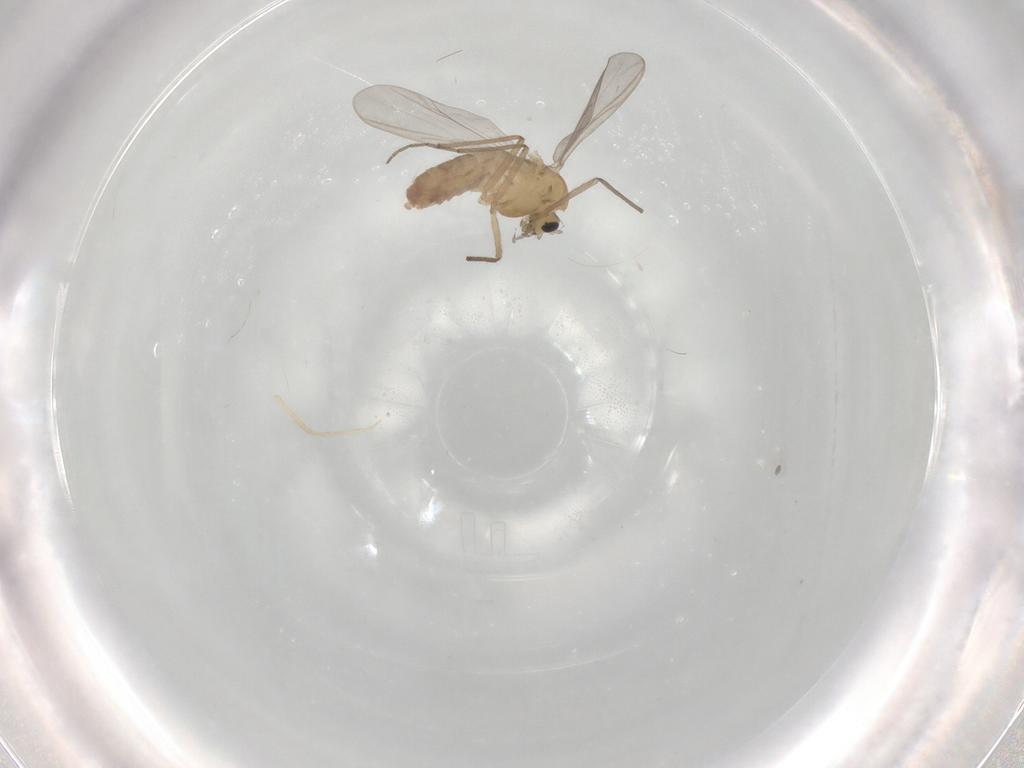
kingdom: Animalia
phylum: Arthropoda
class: Insecta
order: Diptera
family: Chironomidae
